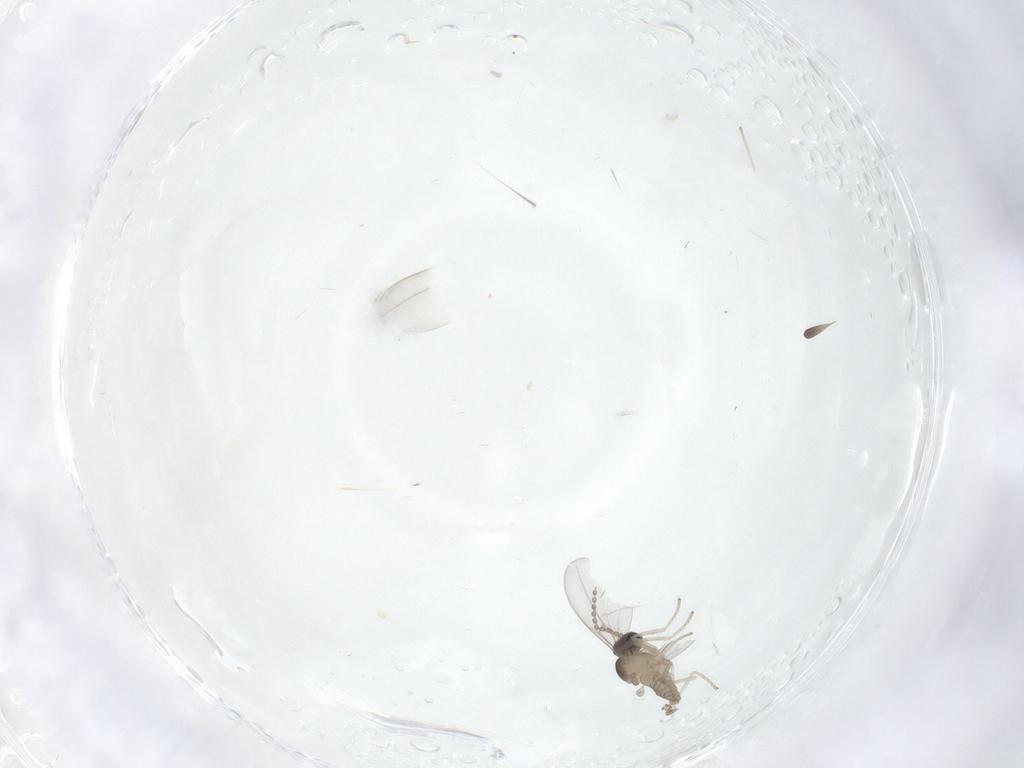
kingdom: Animalia
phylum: Arthropoda
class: Insecta
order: Diptera
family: Cecidomyiidae
